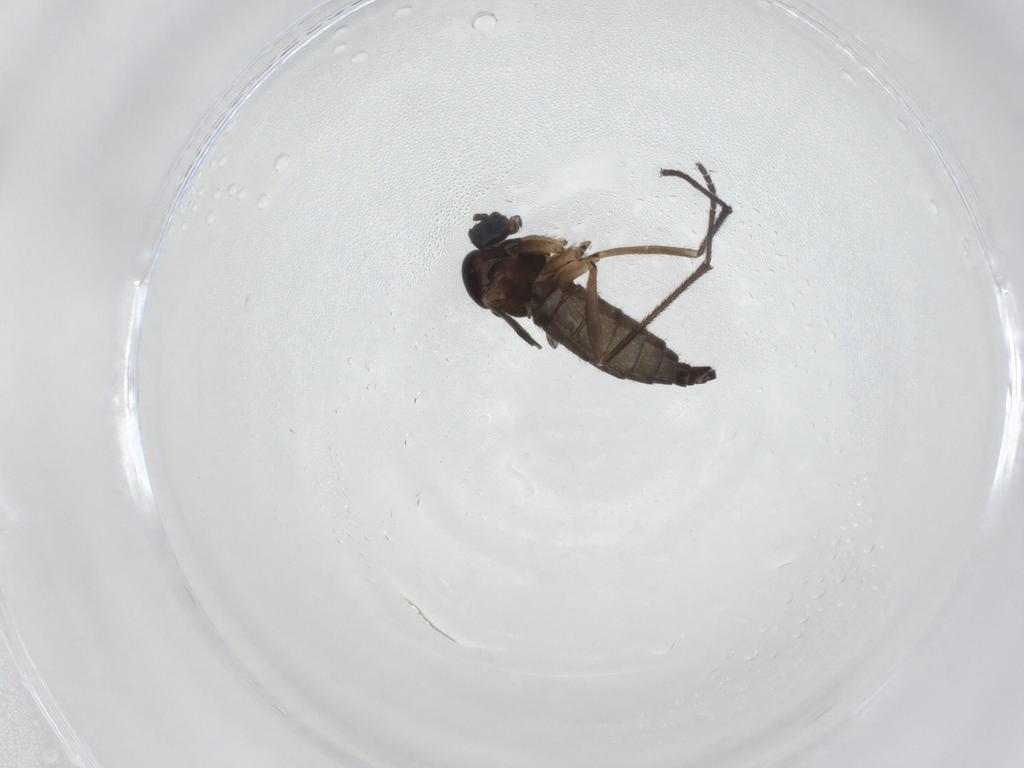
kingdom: Animalia
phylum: Arthropoda
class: Insecta
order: Diptera
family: Sciaridae
